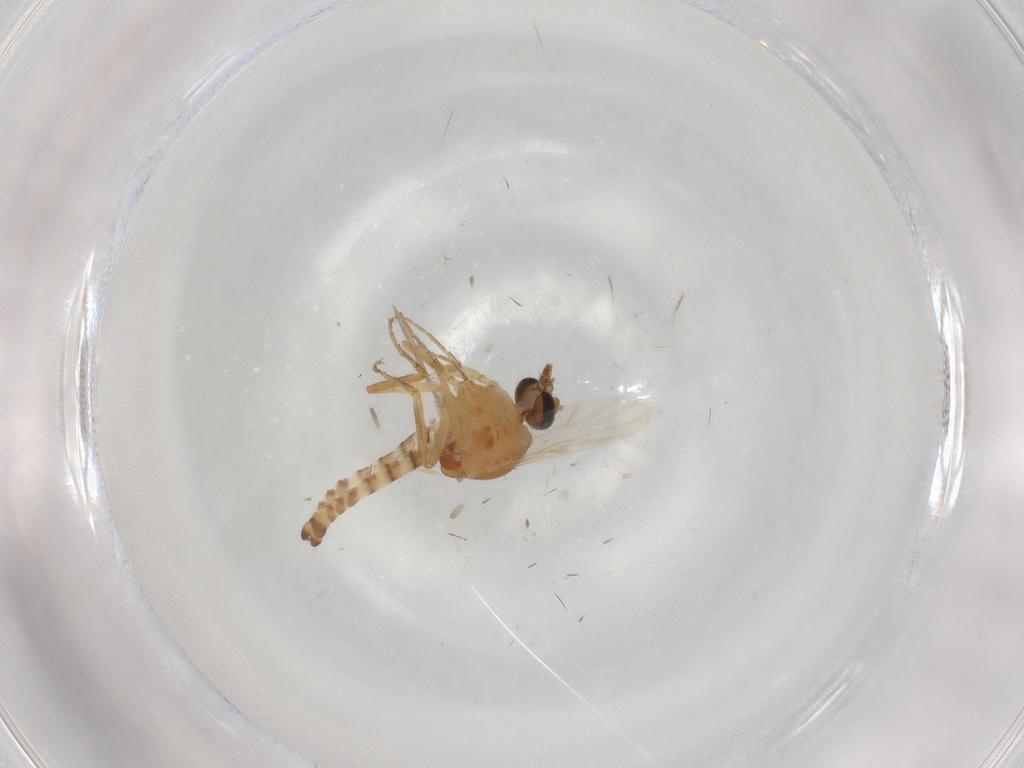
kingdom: Animalia
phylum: Arthropoda
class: Insecta
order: Diptera
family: Ceratopogonidae
